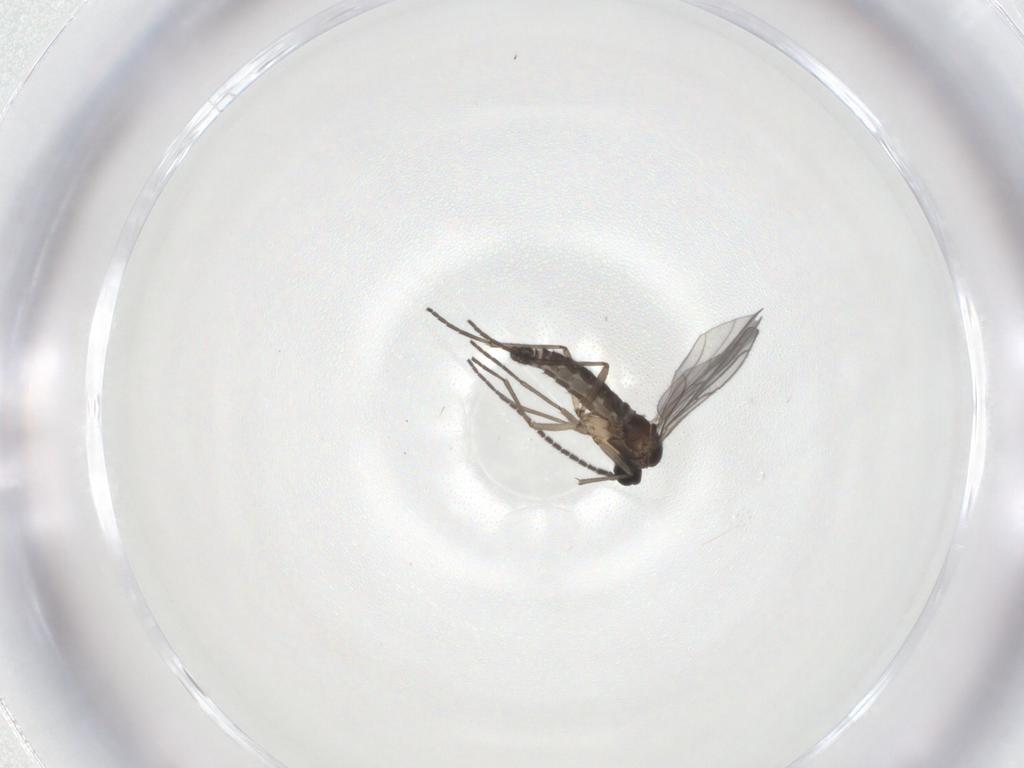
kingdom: Animalia
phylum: Arthropoda
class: Insecta
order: Diptera
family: Sciaridae
